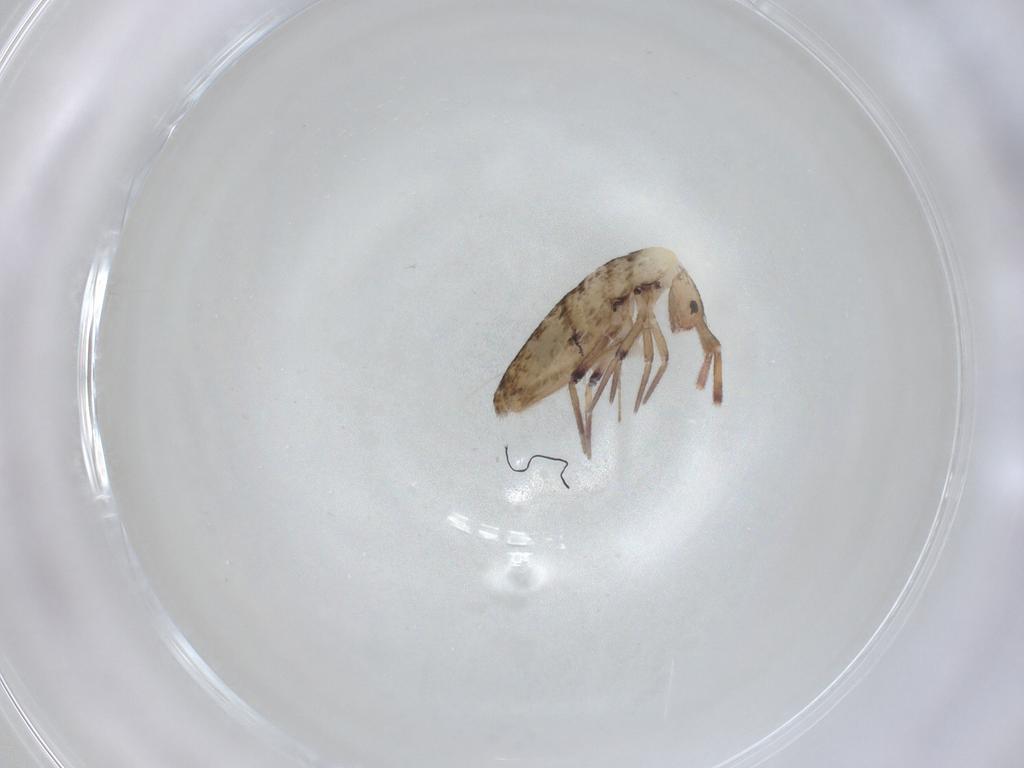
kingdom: Animalia
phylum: Arthropoda
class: Collembola
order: Entomobryomorpha
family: Entomobryidae
